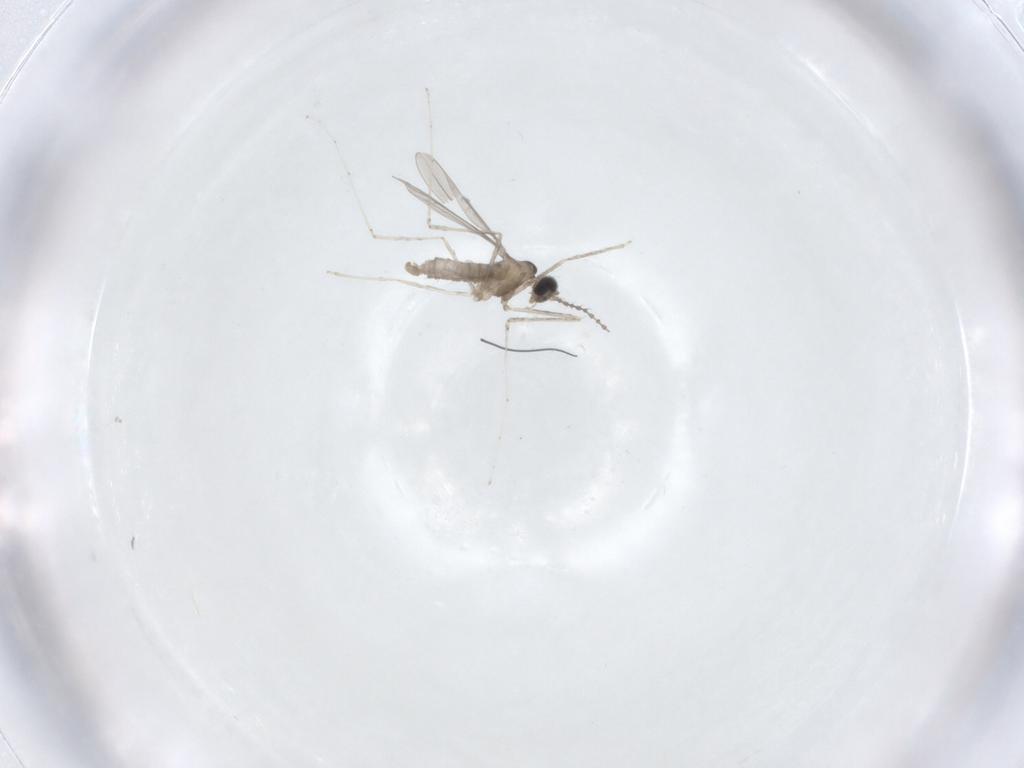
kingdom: Animalia
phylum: Arthropoda
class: Insecta
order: Diptera
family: Cecidomyiidae
